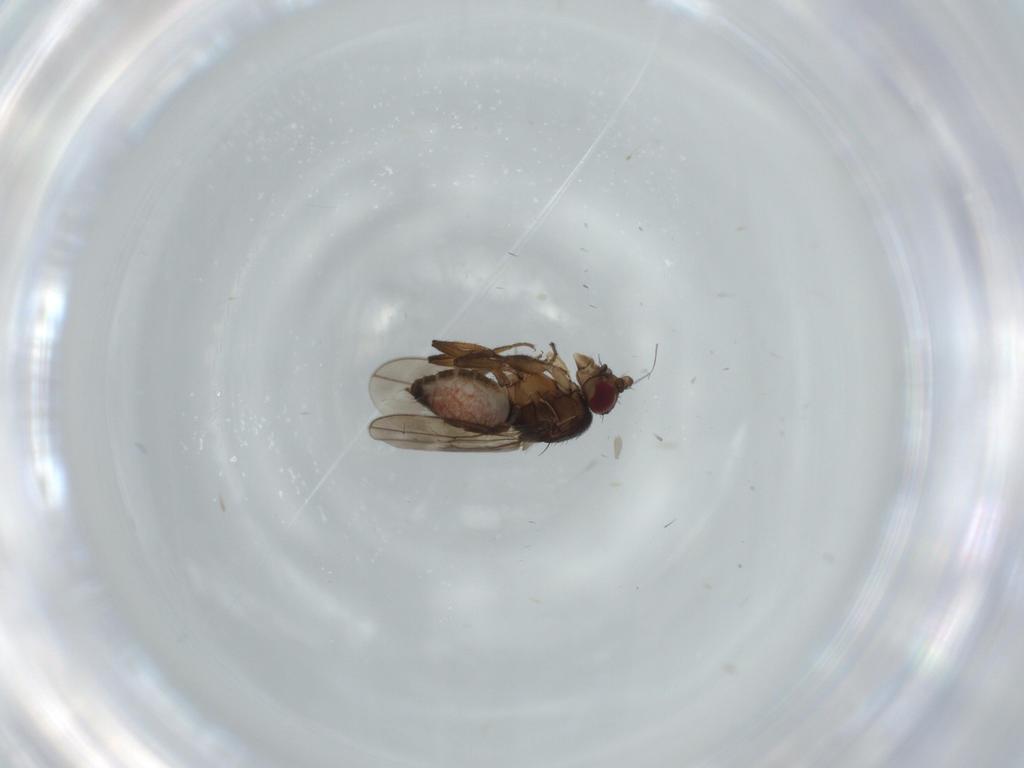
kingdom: Animalia
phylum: Arthropoda
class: Insecta
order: Diptera
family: Sphaeroceridae
